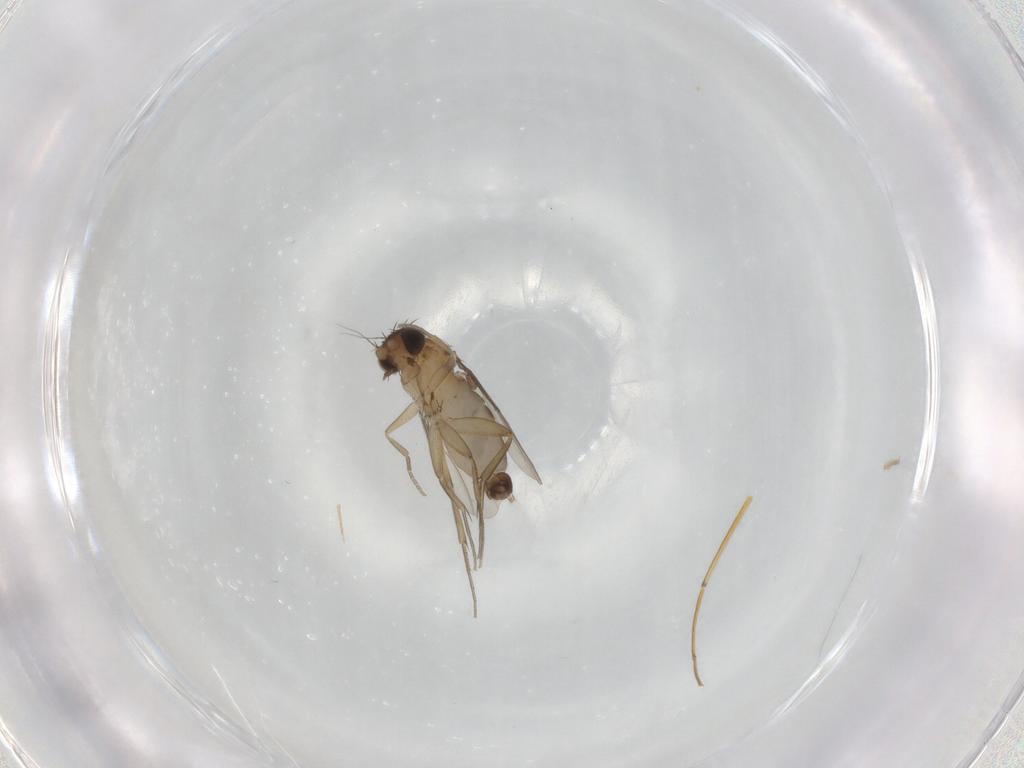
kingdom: Animalia
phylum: Arthropoda
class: Insecta
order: Diptera
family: Phoridae
